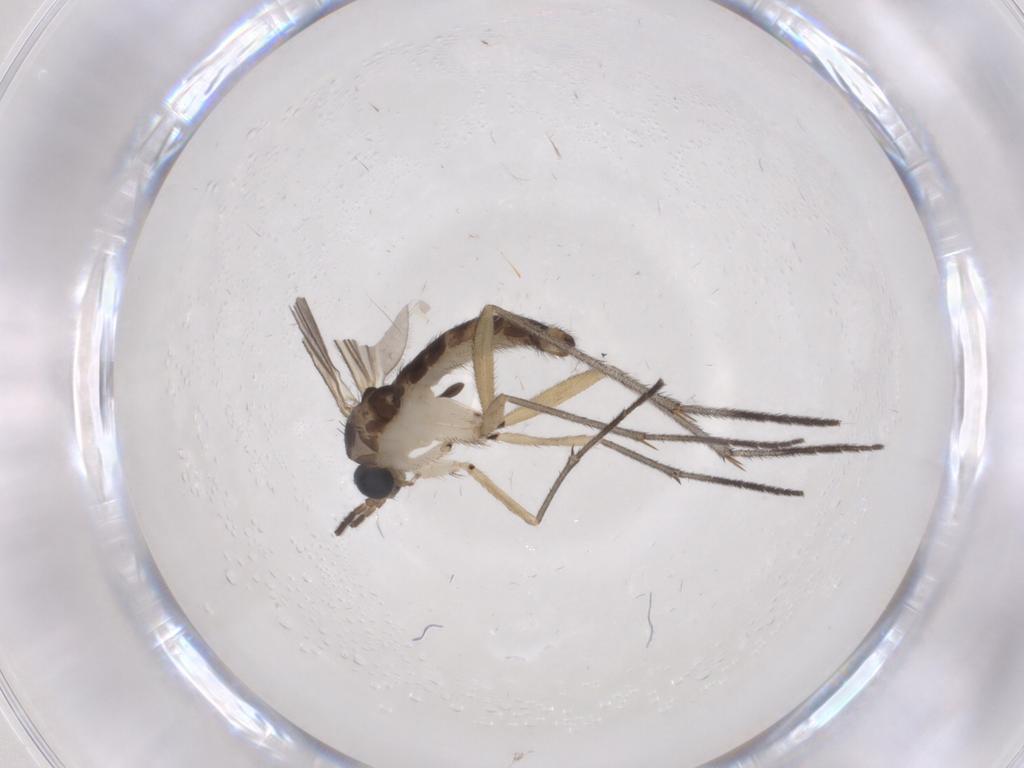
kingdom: Animalia
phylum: Arthropoda
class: Insecta
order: Diptera
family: Sciaridae
